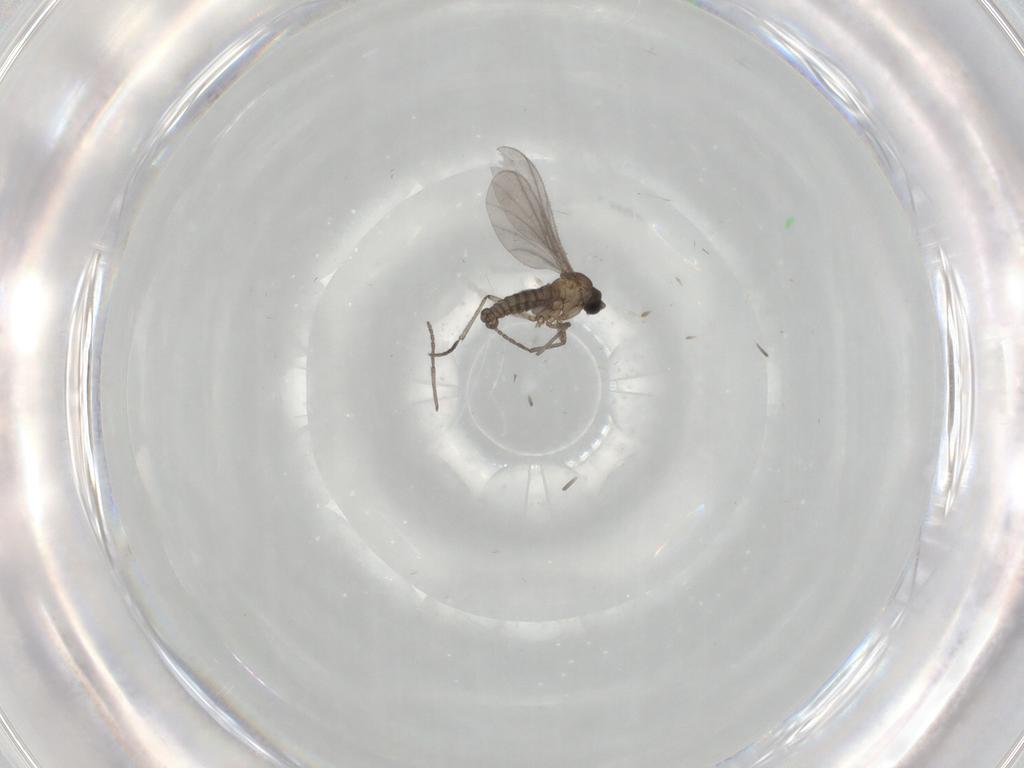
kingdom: Animalia
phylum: Arthropoda
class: Insecta
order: Diptera
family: Sciaridae
